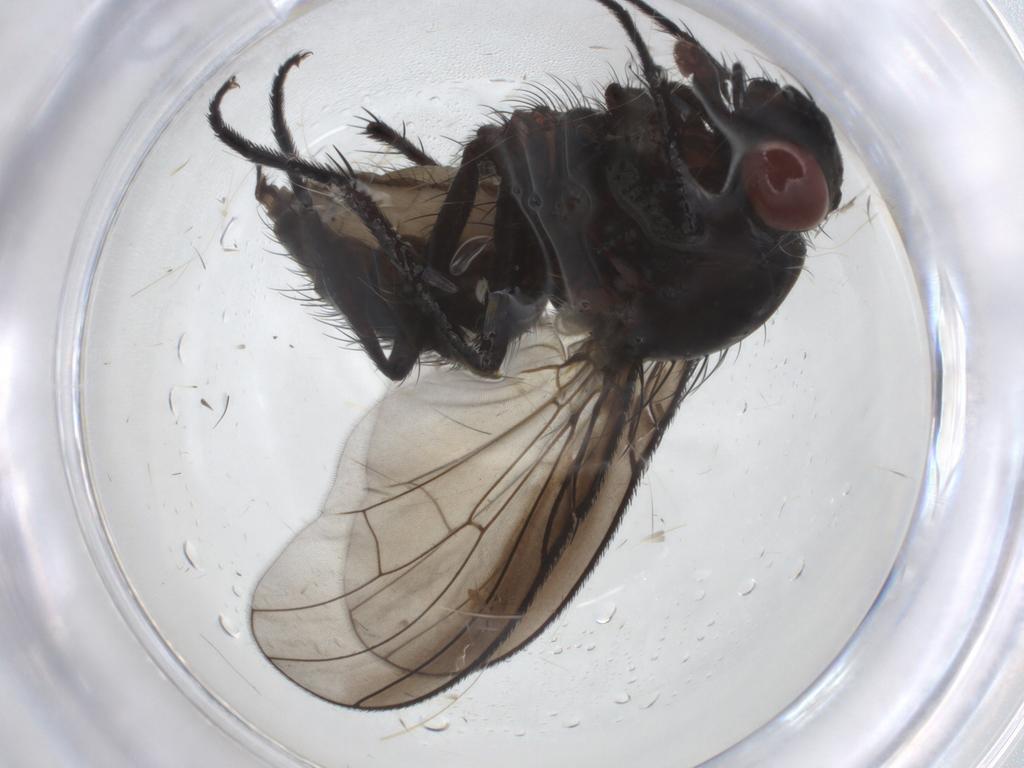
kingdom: Animalia
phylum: Arthropoda
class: Insecta
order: Diptera
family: Anthomyiidae
